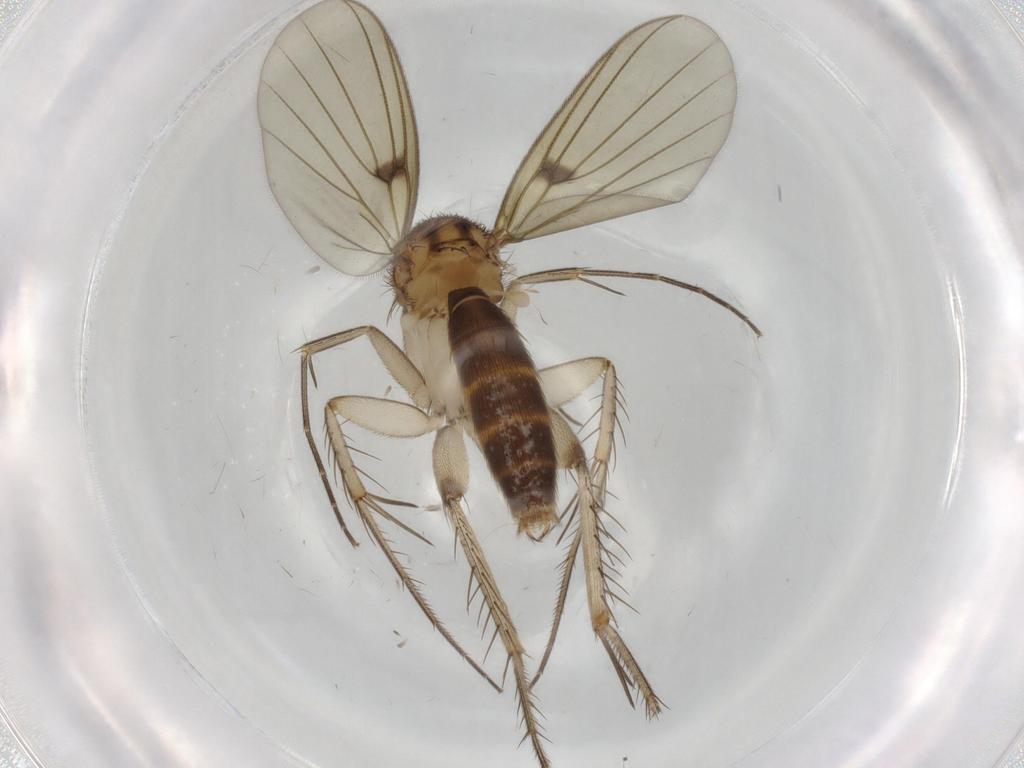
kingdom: Animalia
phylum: Arthropoda
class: Insecta
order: Diptera
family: Mycetophilidae
